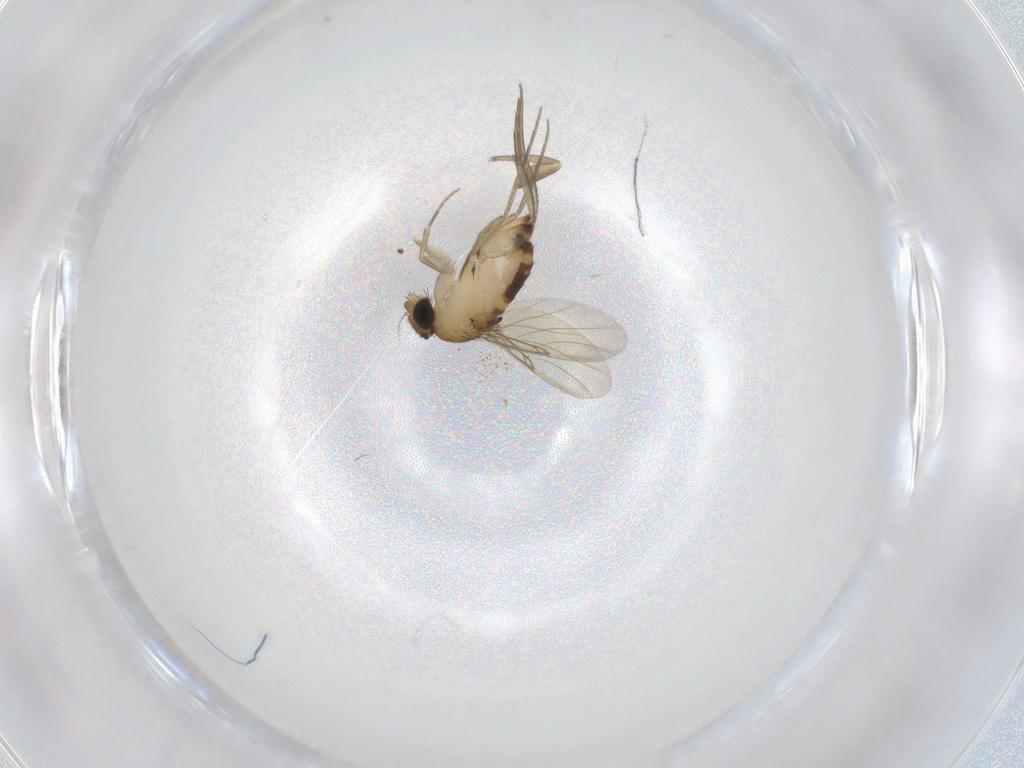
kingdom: Animalia
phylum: Arthropoda
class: Insecta
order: Diptera
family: Phoridae
